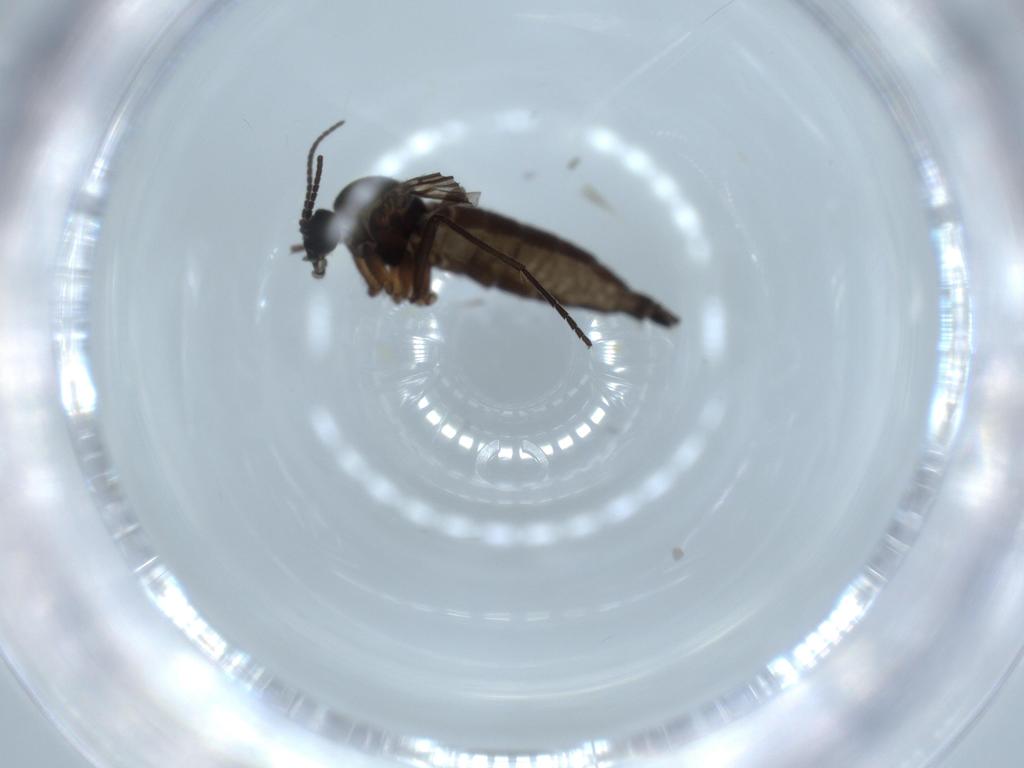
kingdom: Animalia
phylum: Arthropoda
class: Insecta
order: Diptera
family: Sciaridae
